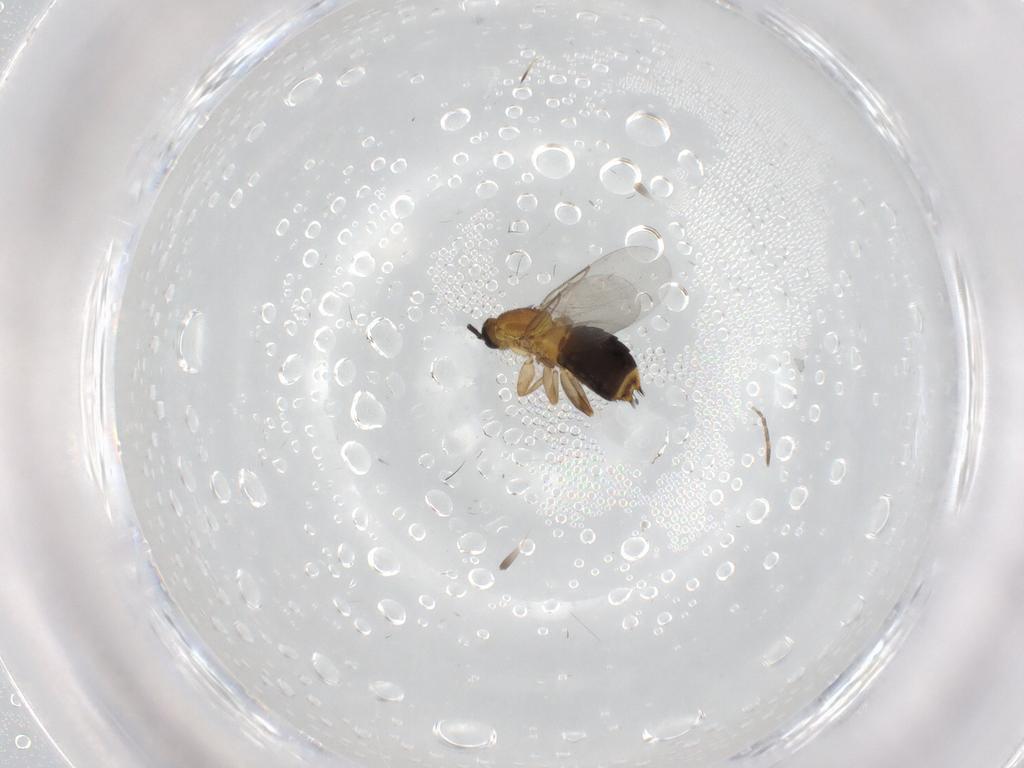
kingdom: Animalia
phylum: Arthropoda
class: Insecta
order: Diptera
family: Scatopsidae
